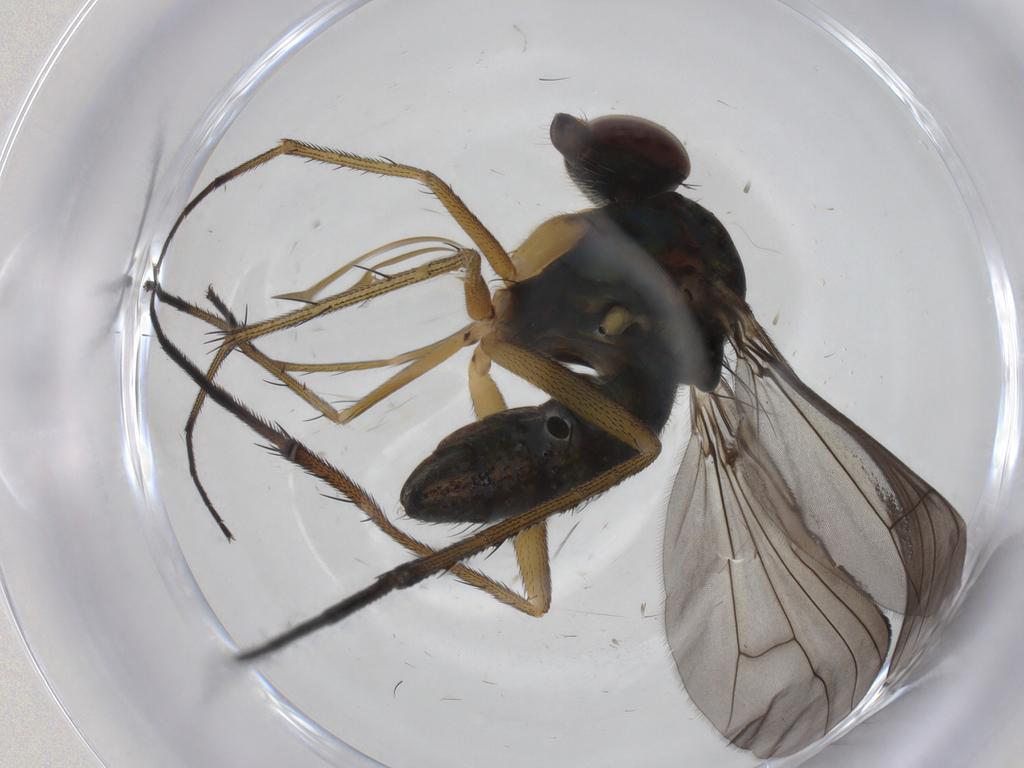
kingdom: Animalia
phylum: Arthropoda
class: Insecta
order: Diptera
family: Dolichopodidae
